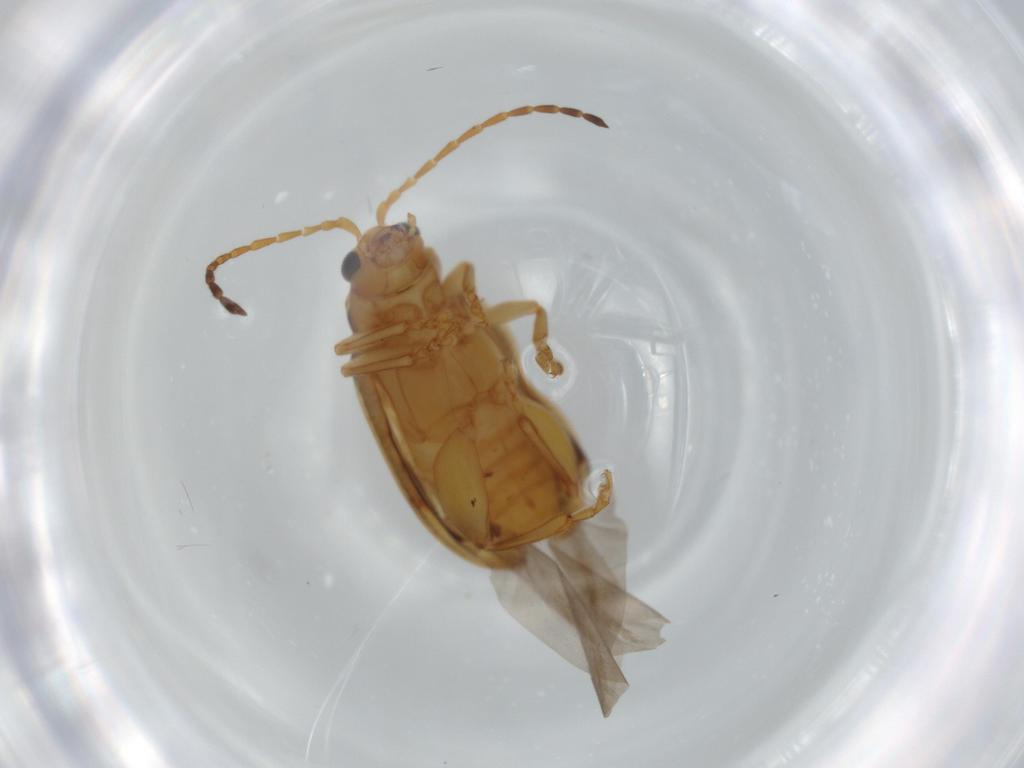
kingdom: Animalia
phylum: Arthropoda
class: Insecta
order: Coleoptera
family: Chrysomelidae
